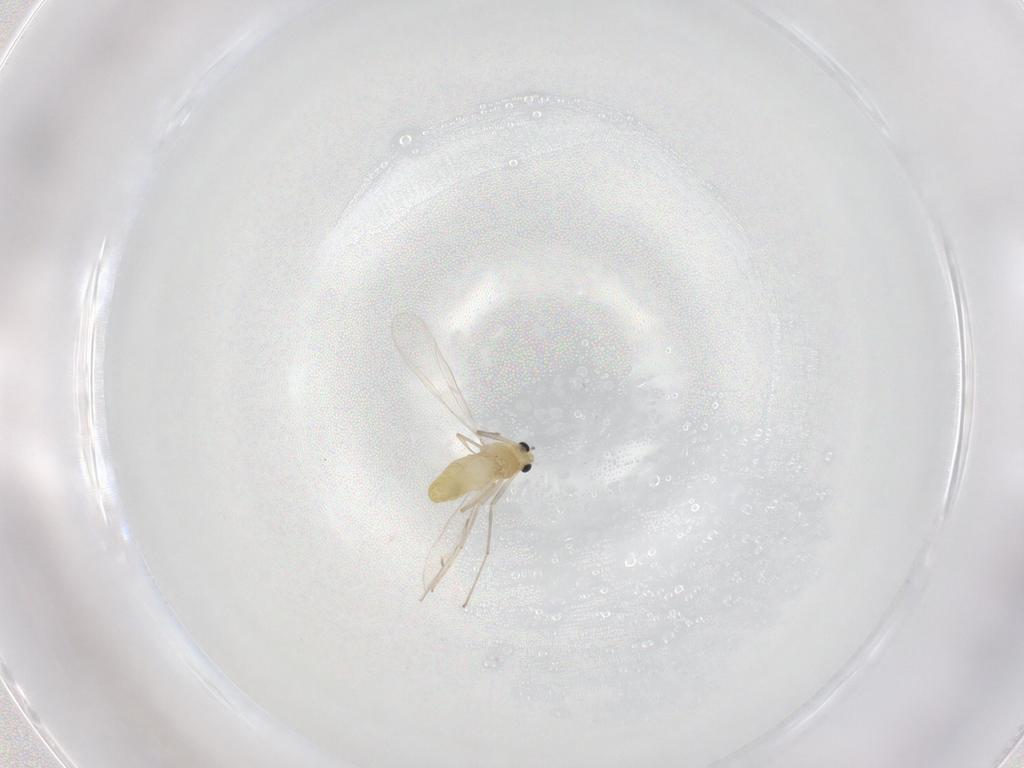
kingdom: Animalia
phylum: Arthropoda
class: Insecta
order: Diptera
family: Chironomidae
